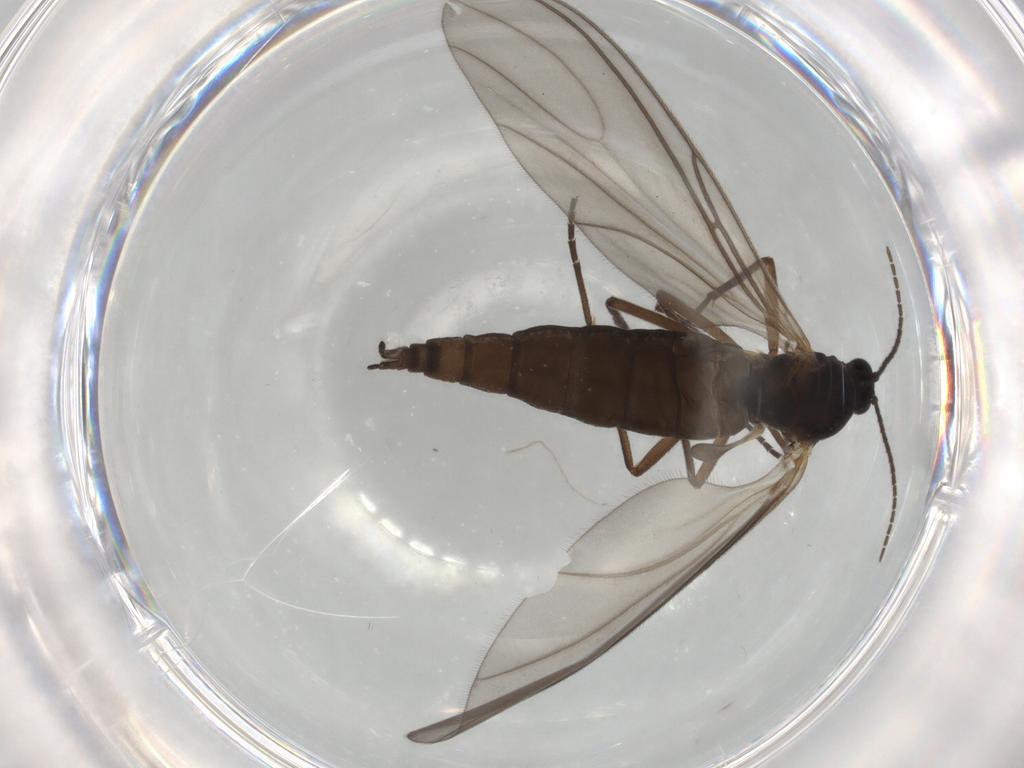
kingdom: Animalia
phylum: Arthropoda
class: Insecta
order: Diptera
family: Sciaridae
